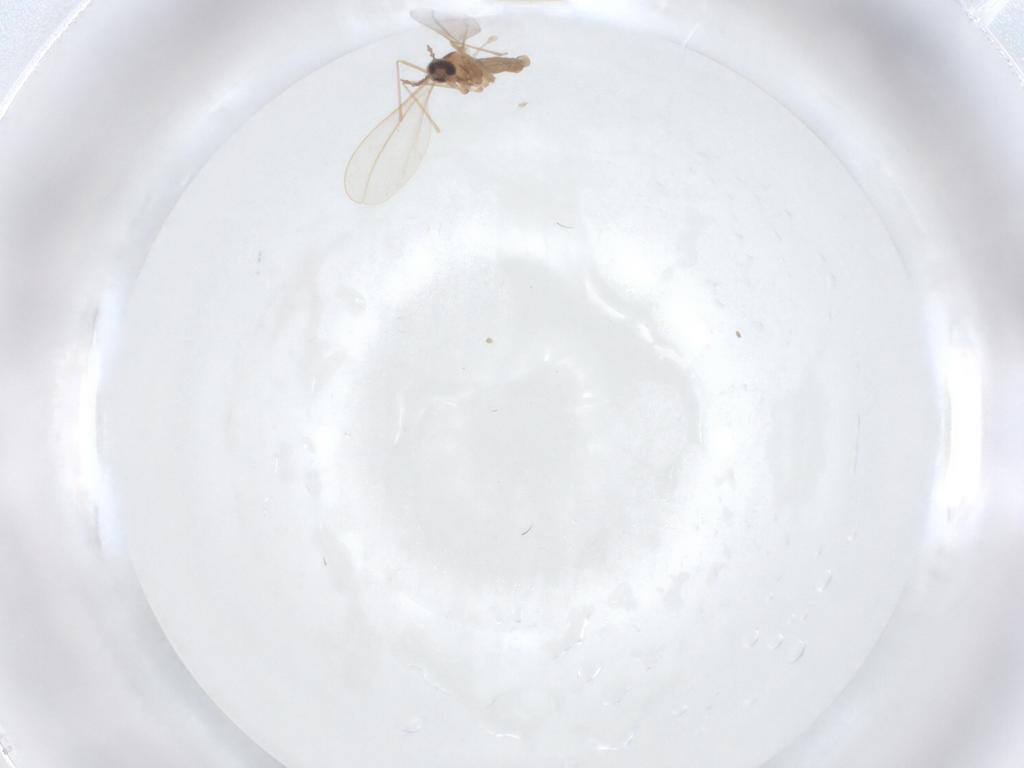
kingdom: Animalia
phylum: Arthropoda
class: Insecta
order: Diptera
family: Cecidomyiidae
